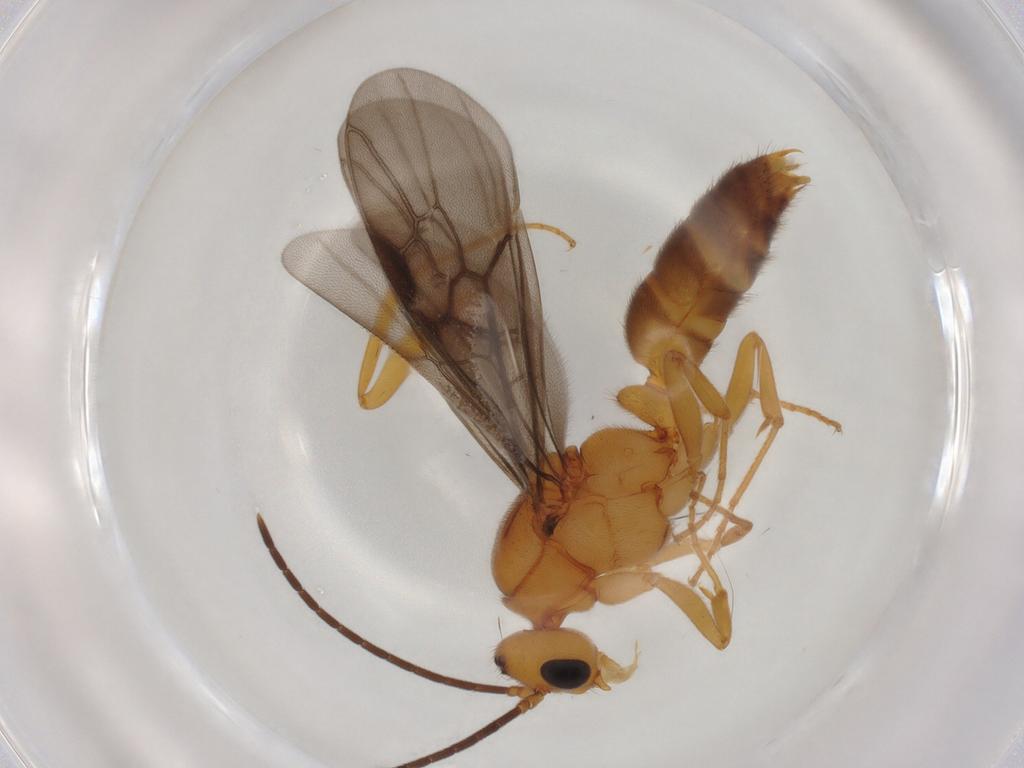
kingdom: Animalia
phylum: Arthropoda
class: Insecta
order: Hymenoptera
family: Formicidae
